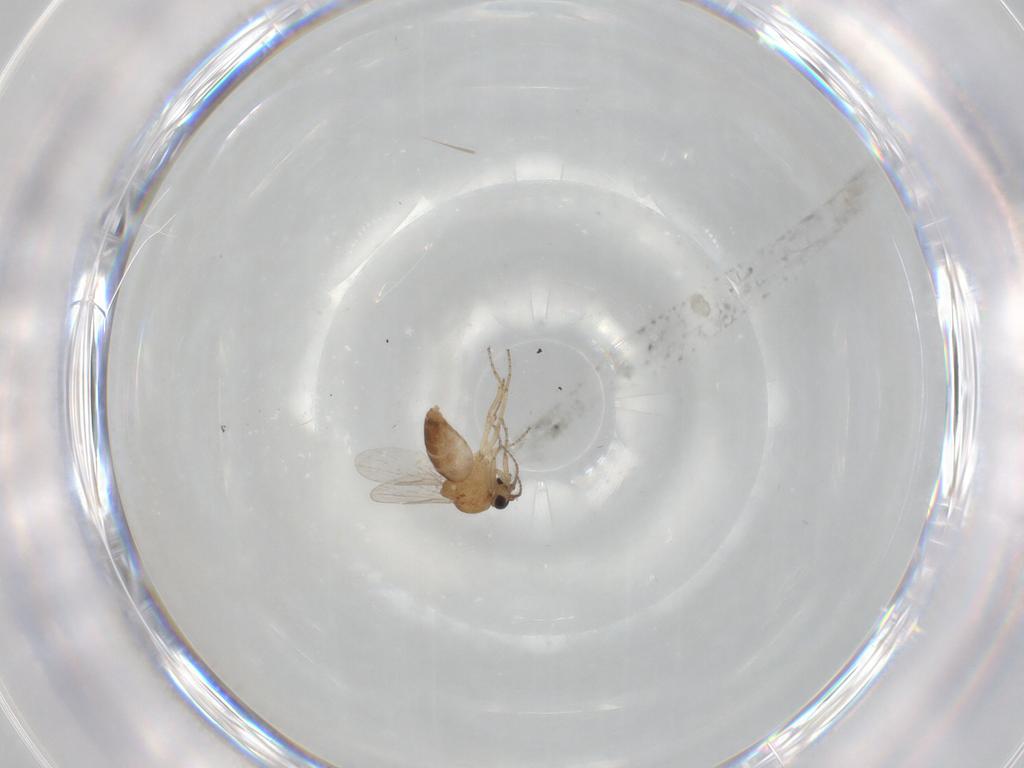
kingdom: Animalia
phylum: Arthropoda
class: Insecta
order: Diptera
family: Ceratopogonidae
